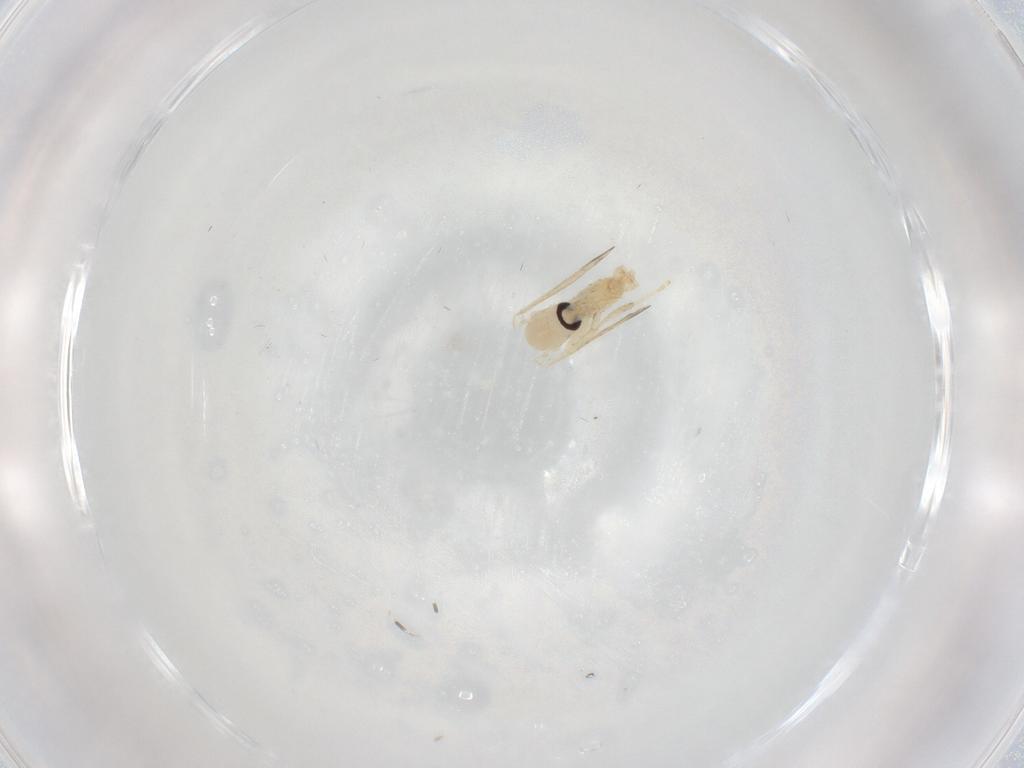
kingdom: Animalia
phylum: Arthropoda
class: Insecta
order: Diptera
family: Psychodidae
